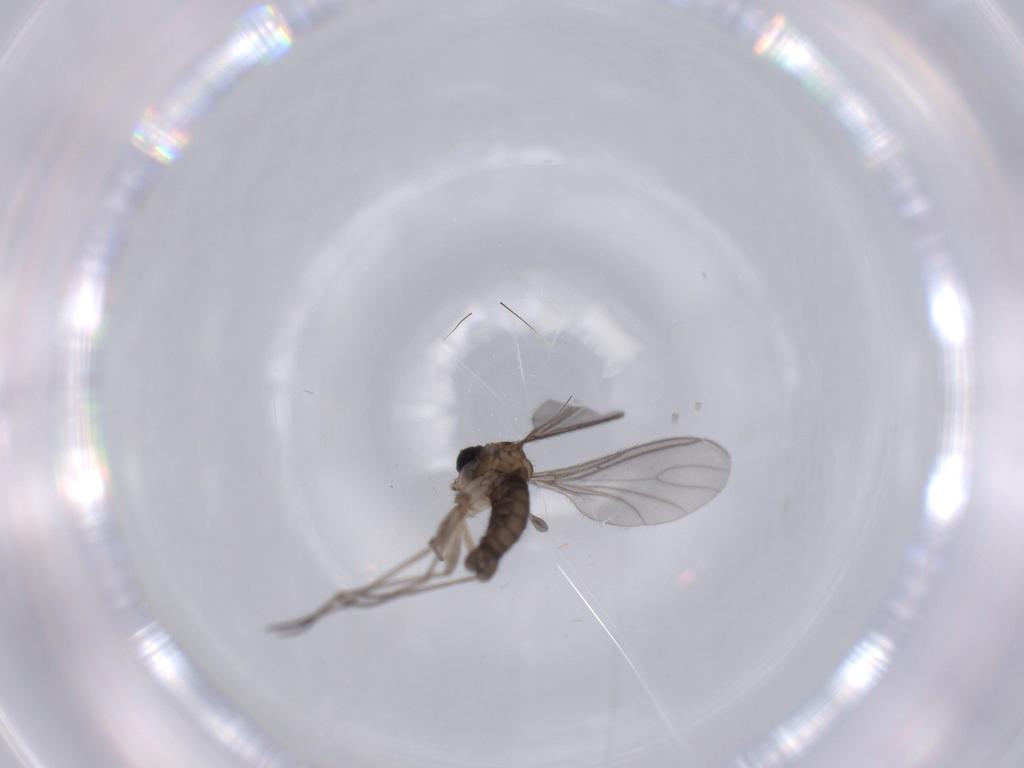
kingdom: Animalia
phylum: Arthropoda
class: Insecta
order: Diptera
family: Sciaridae
